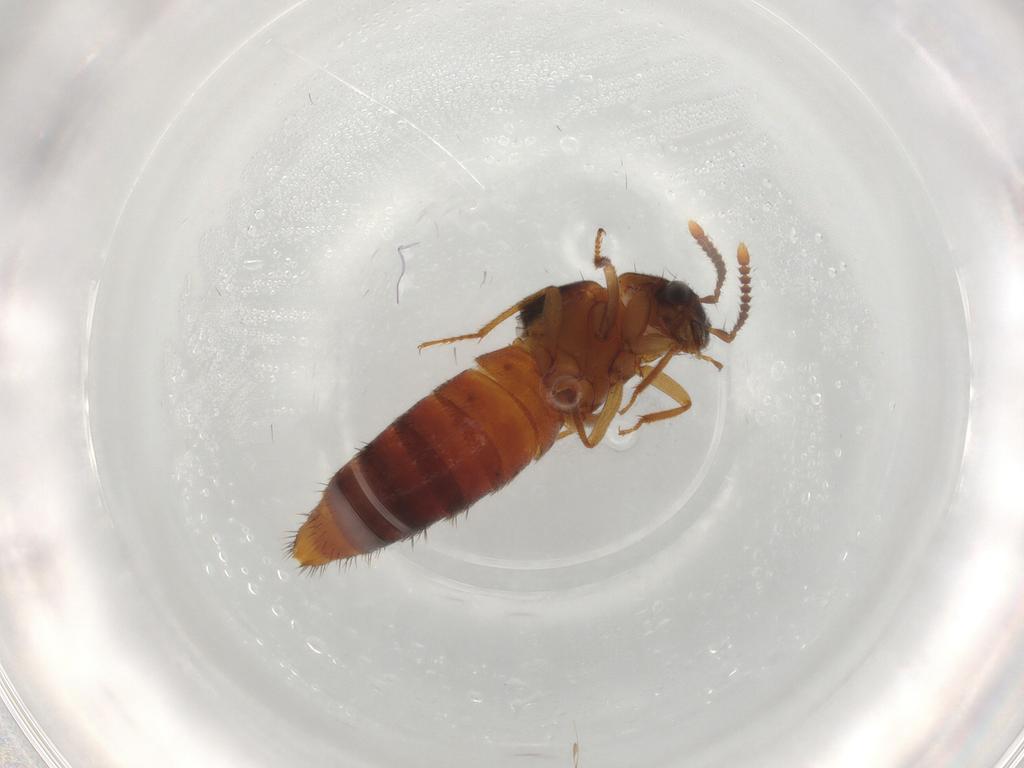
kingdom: Animalia
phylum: Arthropoda
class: Insecta
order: Coleoptera
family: Staphylinidae
